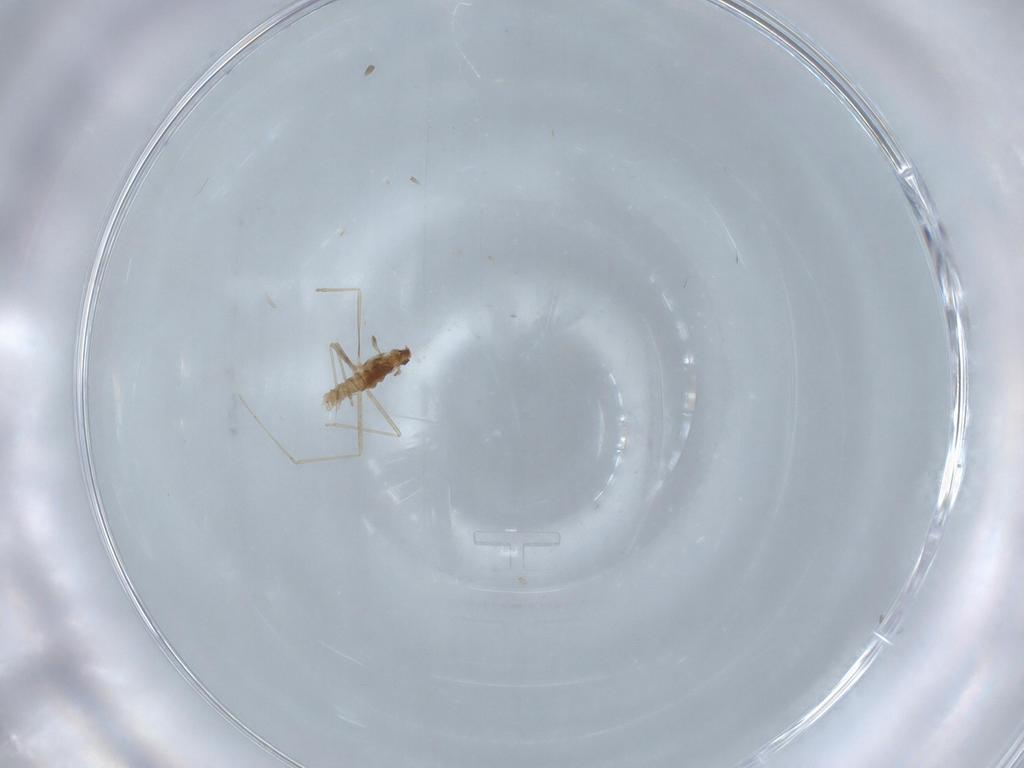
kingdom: Animalia
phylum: Arthropoda
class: Insecta
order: Diptera
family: Cecidomyiidae
